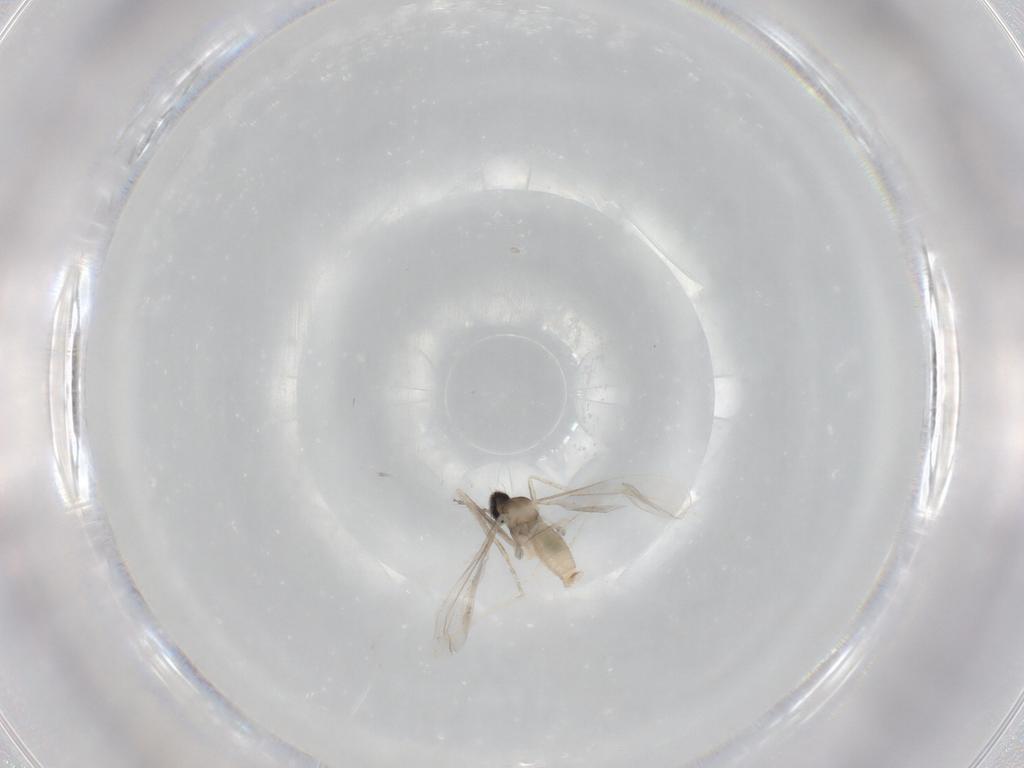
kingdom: Animalia
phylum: Arthropoda
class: Insecta
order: Diptera
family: Cecidomyiidae
